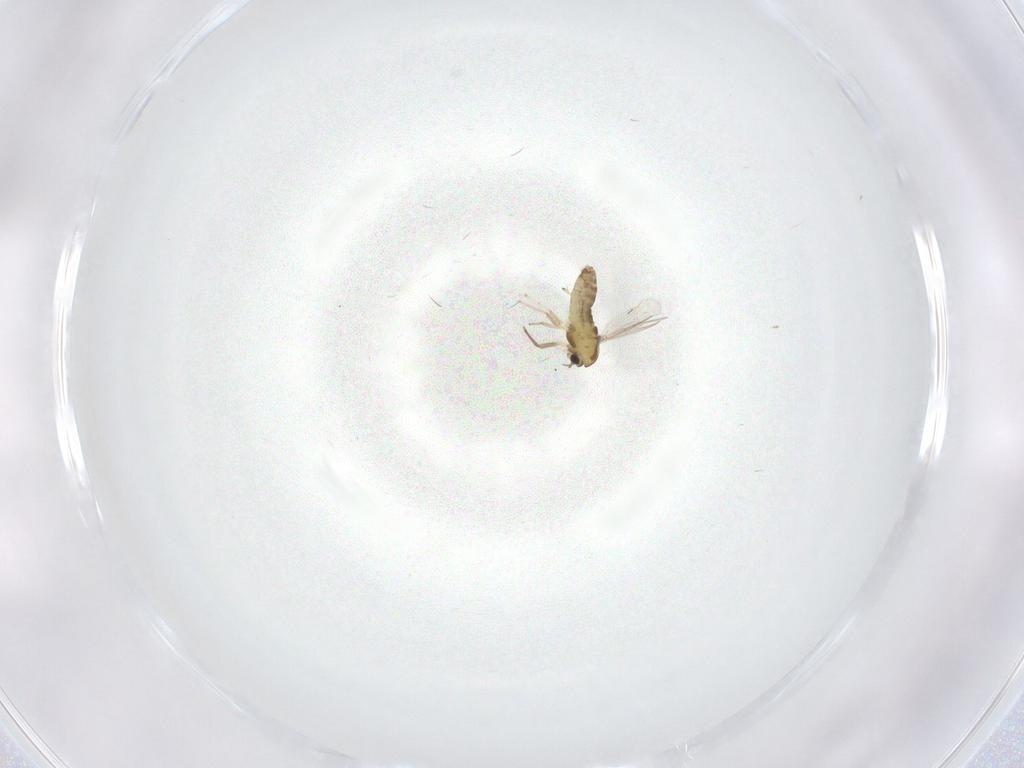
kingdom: Animalia
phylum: Arthropoda
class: Insecta
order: Diptera
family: Chironomidae
